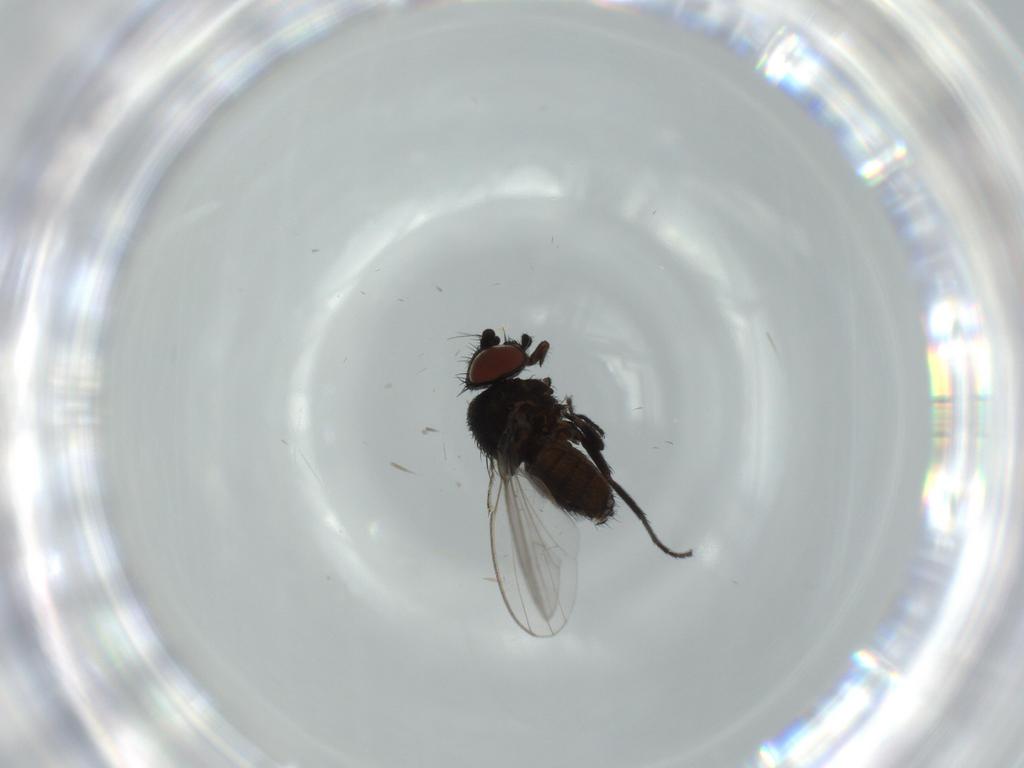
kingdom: Animalia
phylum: Arthropoda
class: Insecta
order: Diptera
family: Milichiidae
